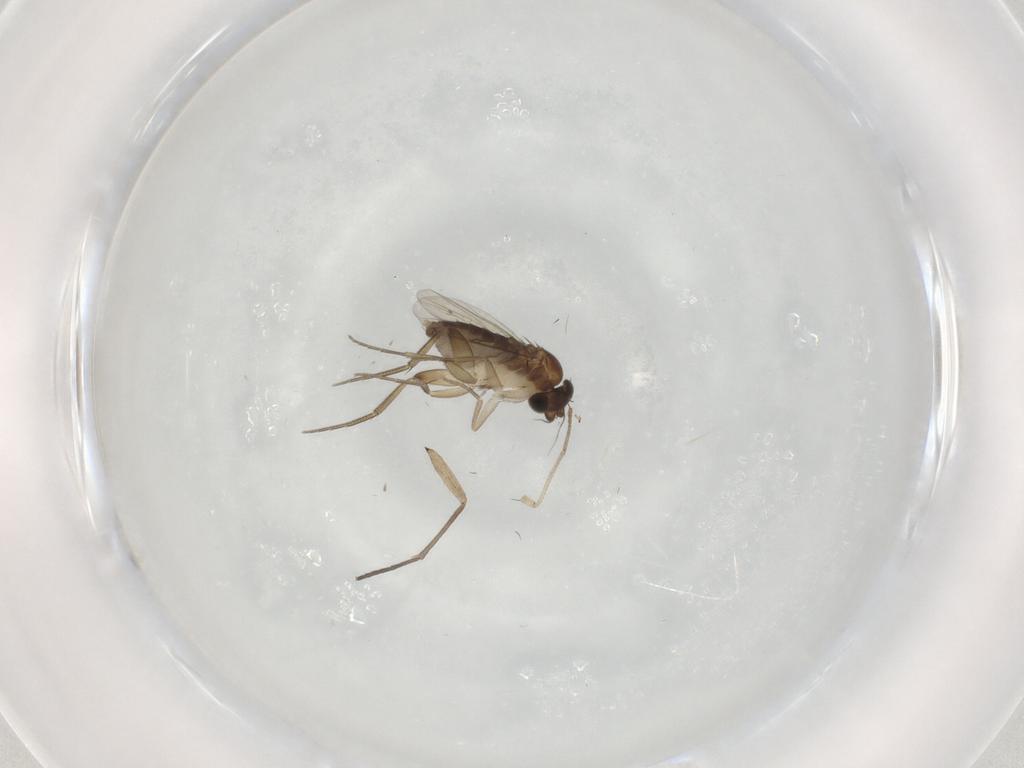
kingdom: Animalia
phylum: Arthropoda
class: Insecta
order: Diptera
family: Phoridae
